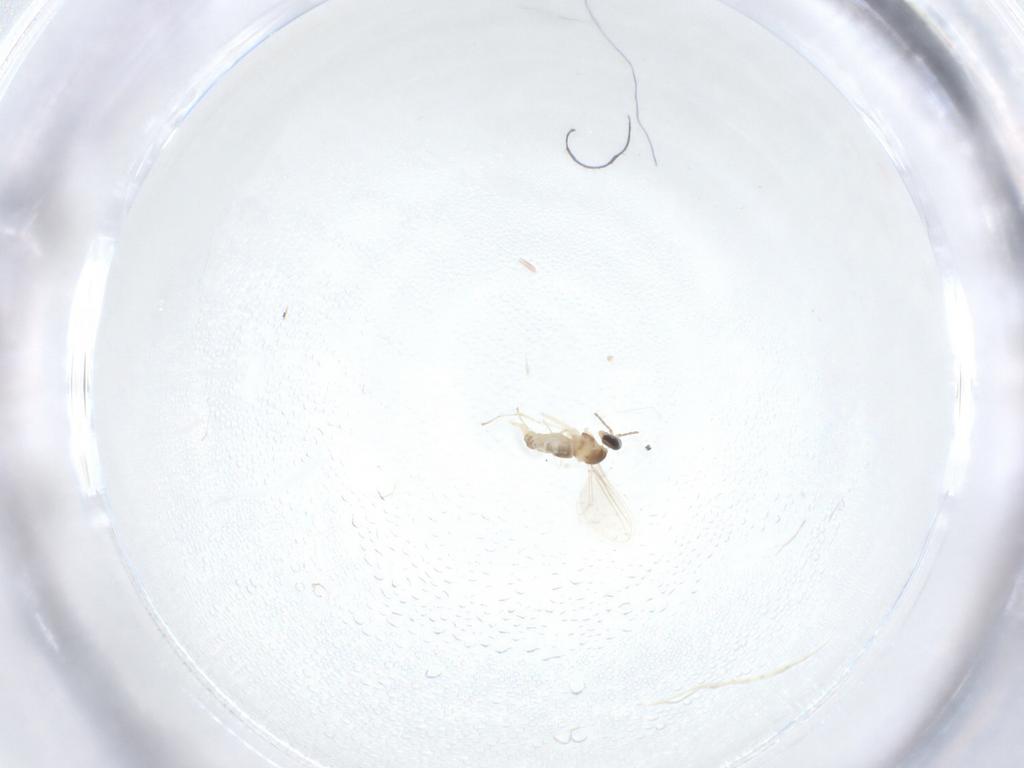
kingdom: Animalia
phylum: Arthropoda
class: Insecta
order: Diptera
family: Cecidomyiidae
